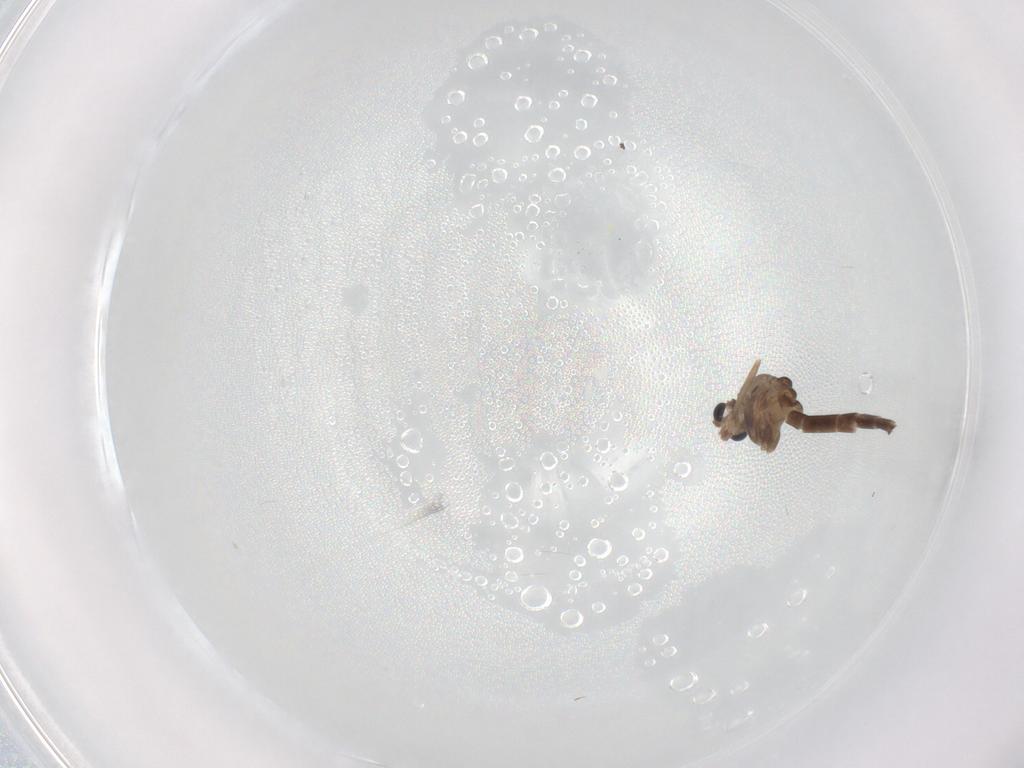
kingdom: Animalia
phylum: Arthropoda
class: Insecta
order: Diptera
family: Sciaridae
